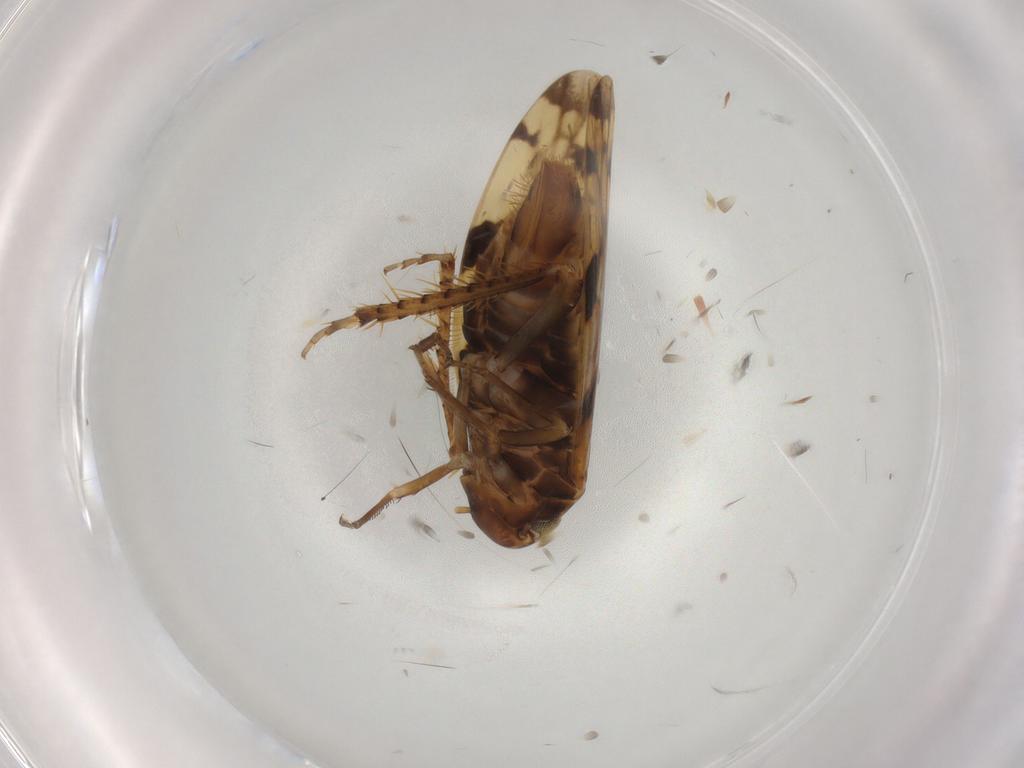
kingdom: Animalia
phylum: Arthropoda
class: Insecta
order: Hemiptera
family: Cicadellidae
